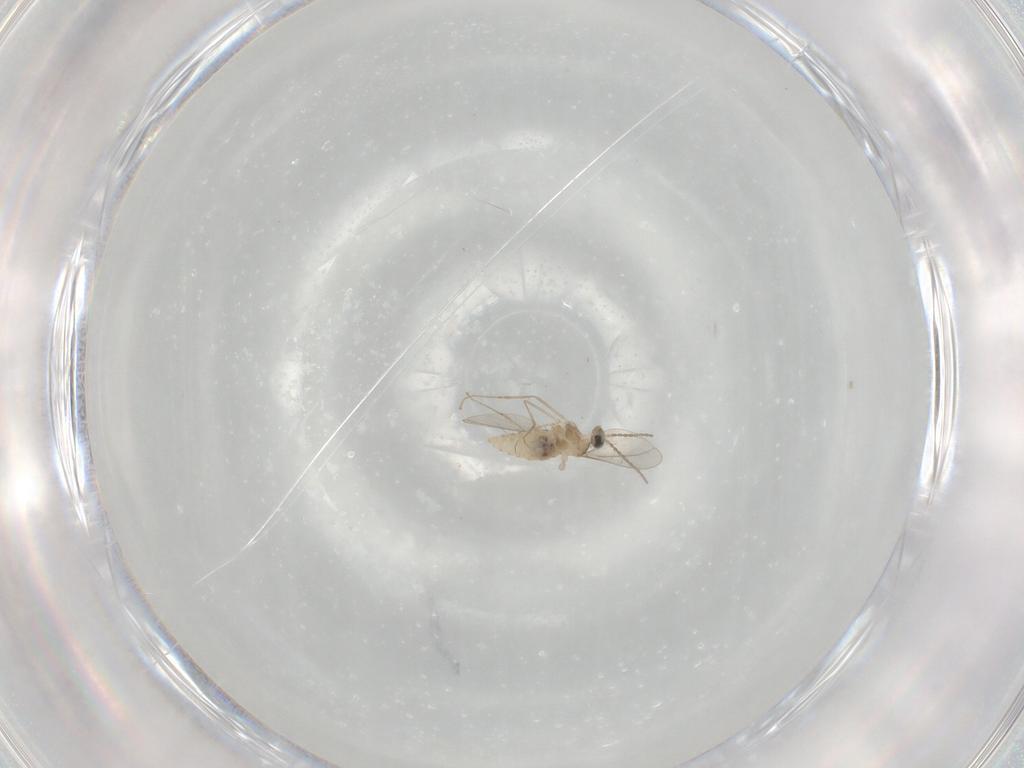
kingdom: Animalia
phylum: Arthropoda
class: Insecta
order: Diptera
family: Cecidomyiidae
